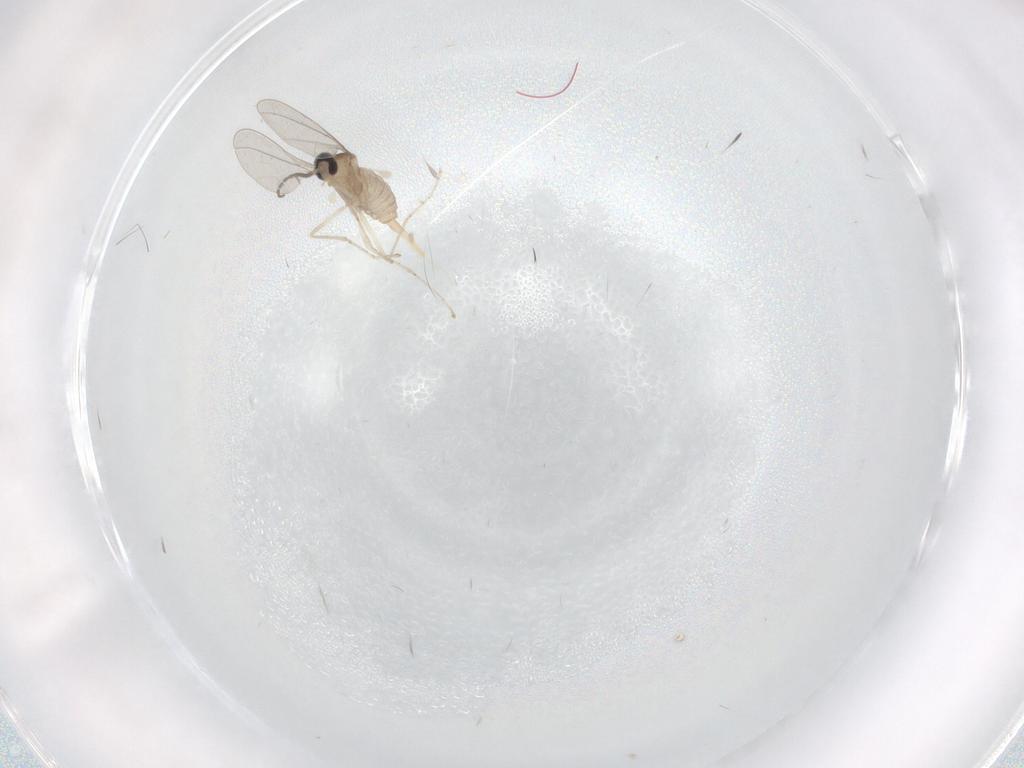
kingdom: Animalia
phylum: Arthropoda
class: Insecta
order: Diptera
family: Cecidomyiidae
